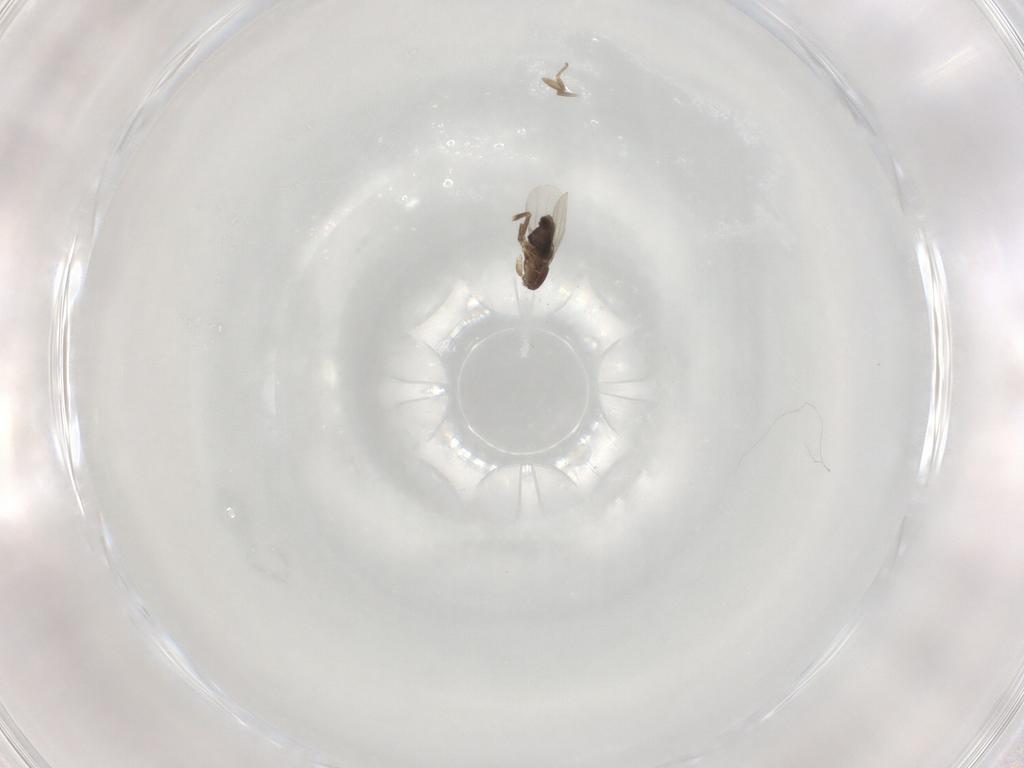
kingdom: Animalia
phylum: Arthropoda
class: Insecta
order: Diptera
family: Phoridae
